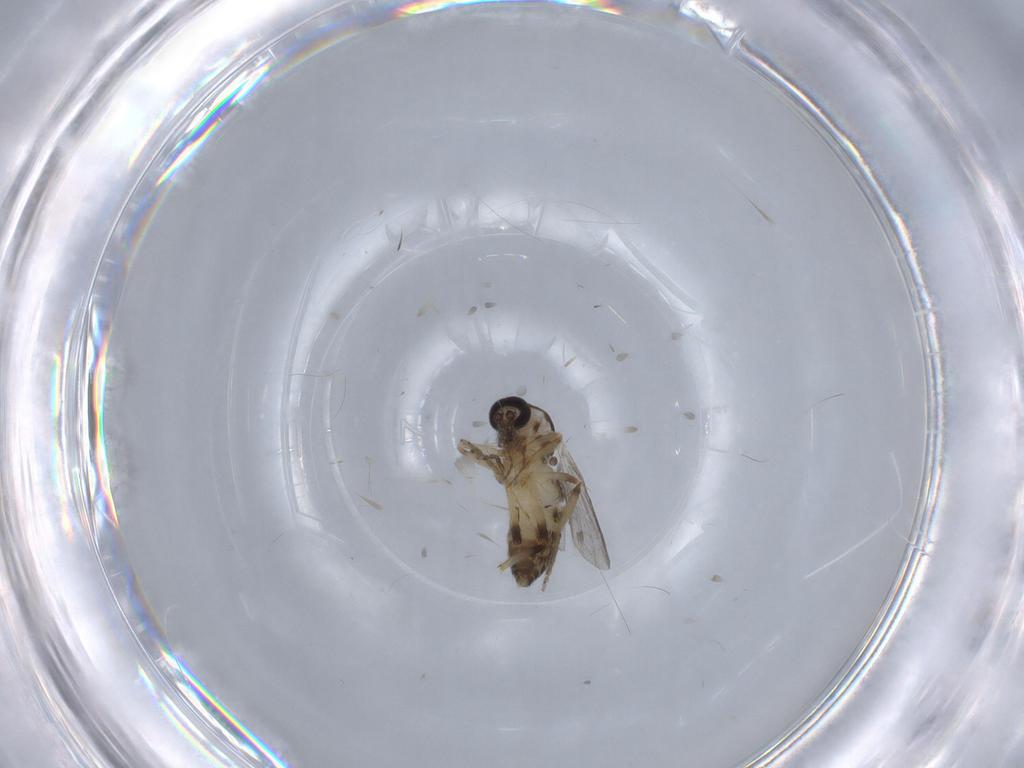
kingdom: Animalia
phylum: Arthropoda
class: Insecta
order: Diptera
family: Ceratopogonidae
